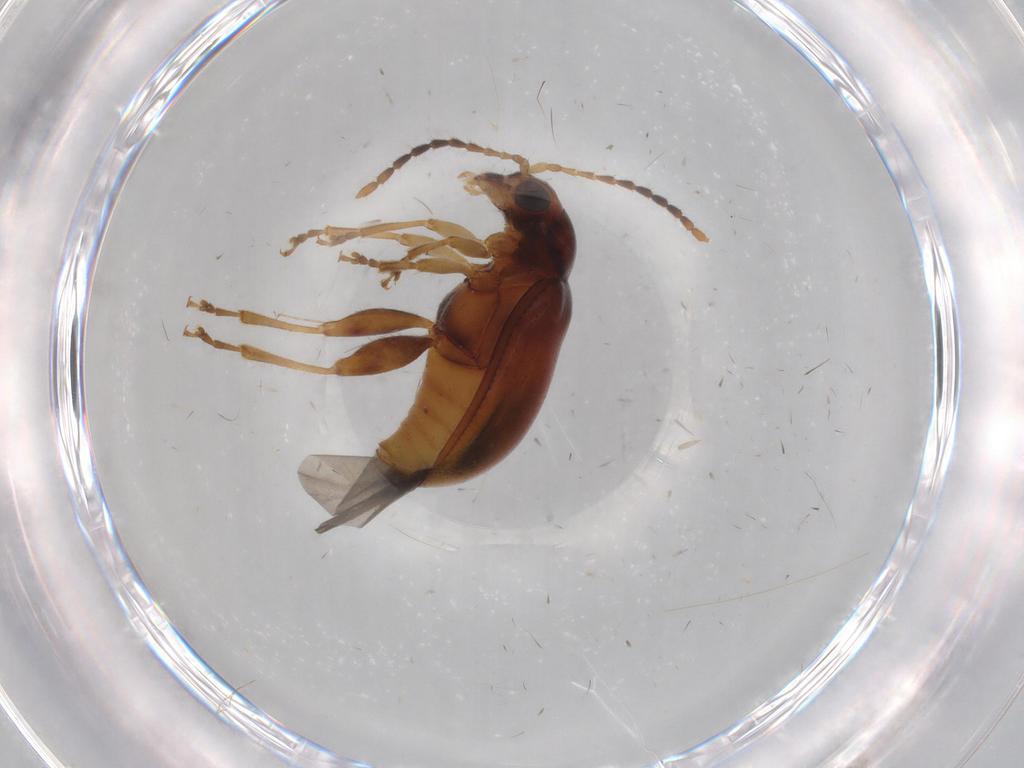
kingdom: Animalia
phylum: Arthropoda
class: Insecta
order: Coleoptera
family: Chrysomelidae
